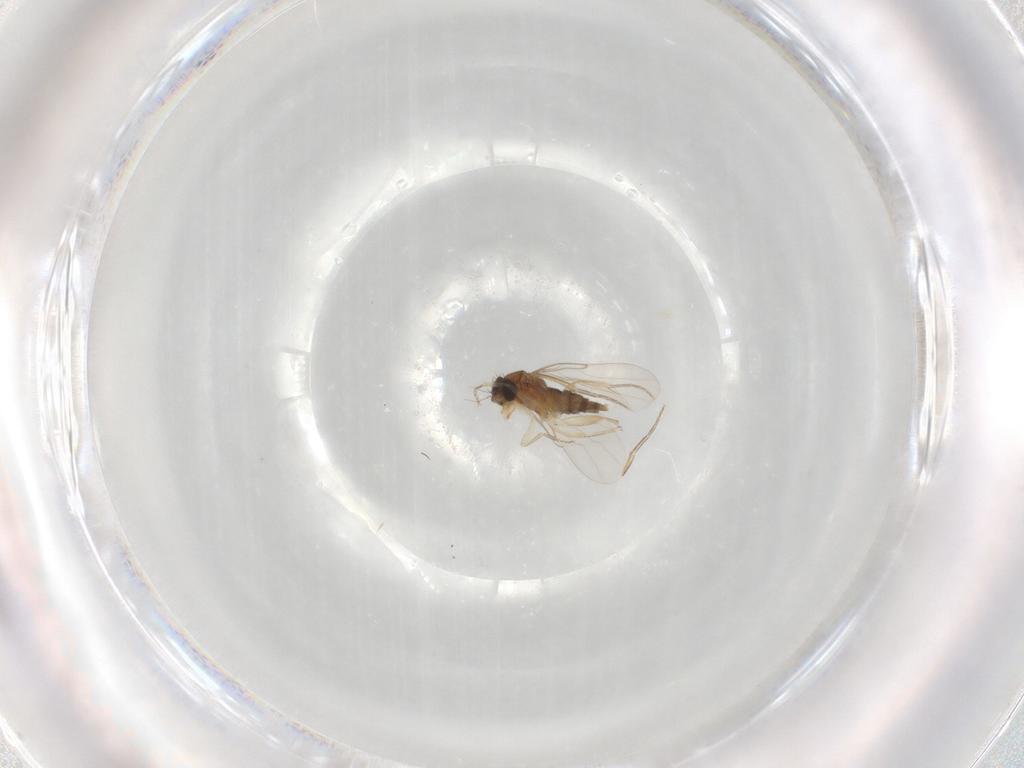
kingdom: Animalia
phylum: Arthropoda
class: Insecta
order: Diptera
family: Phoridae
